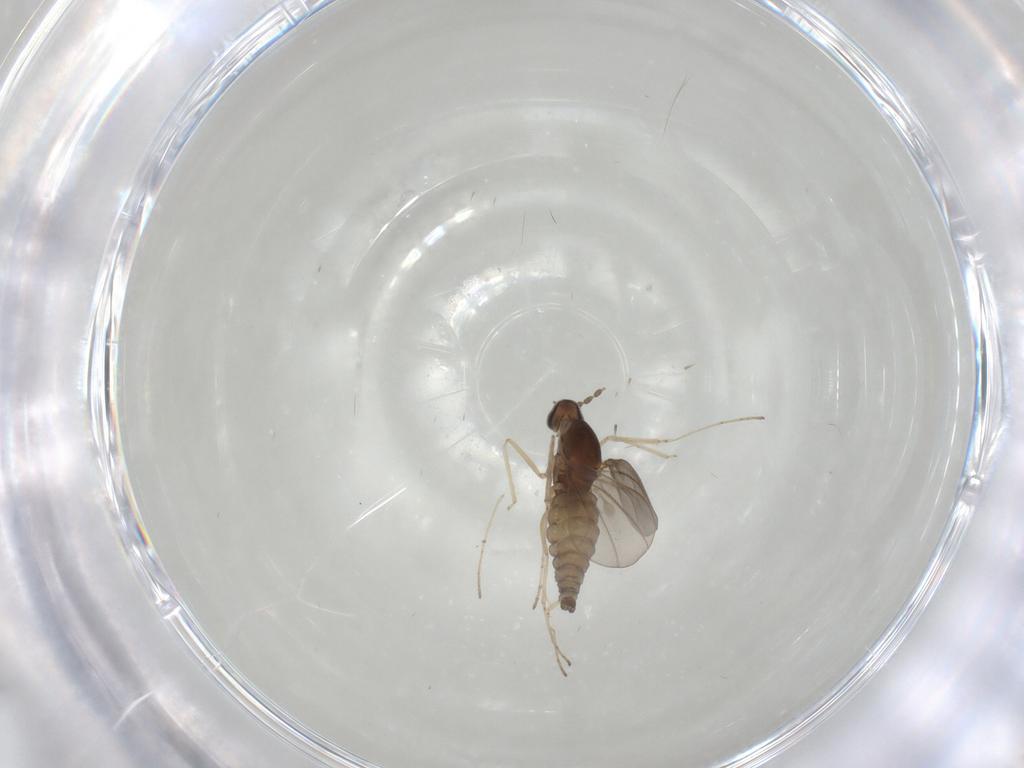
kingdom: Animalia
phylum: Arthropoda
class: Insecta
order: Diptera
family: Cecidomyiidae
